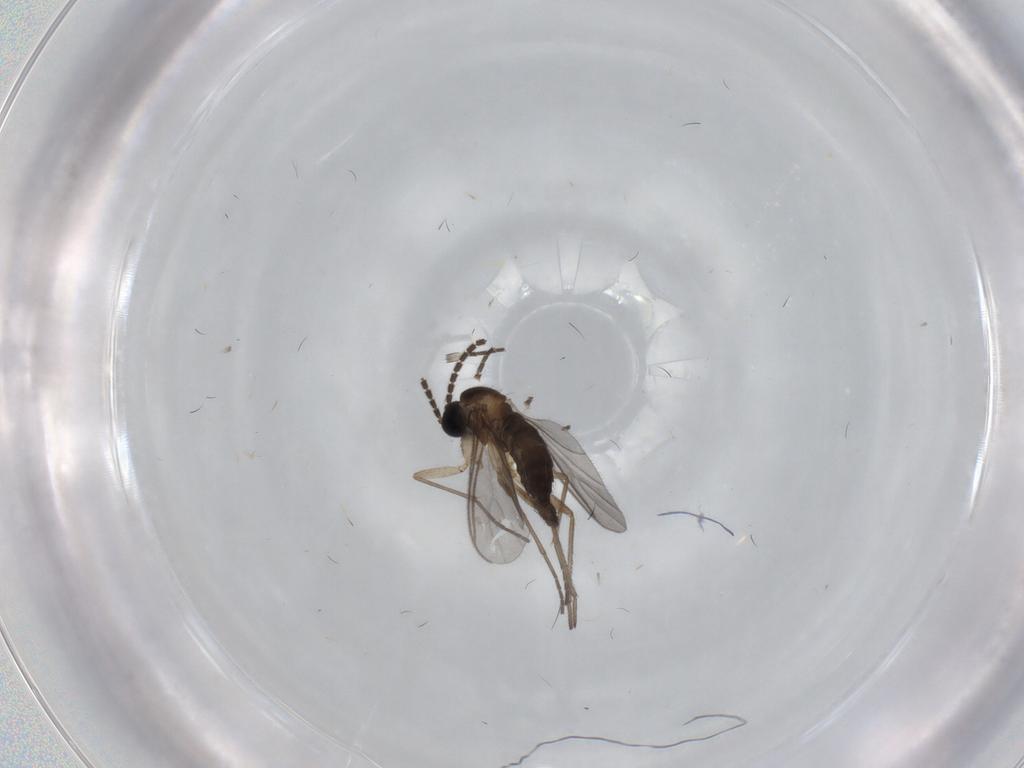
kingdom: Animalia
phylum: Arthropoda
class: Insecta
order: Diptera
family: Sciaridae
